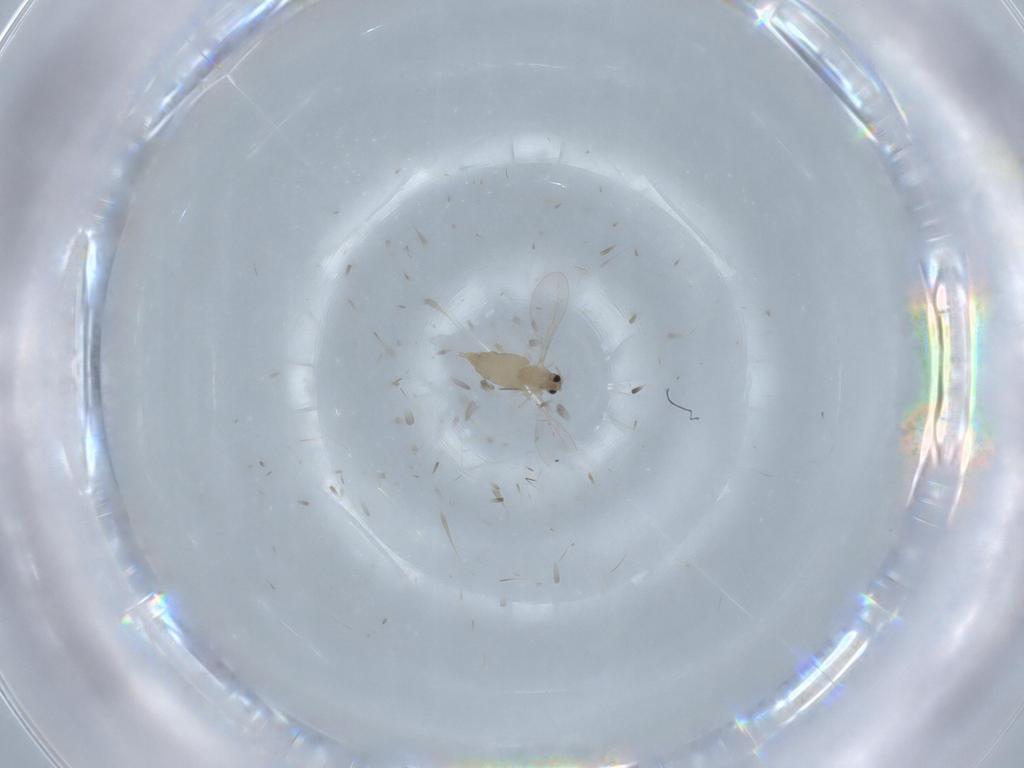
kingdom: Animalia
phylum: Arthropoda
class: Insecta
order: Diptera
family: Cecidomyiidae
